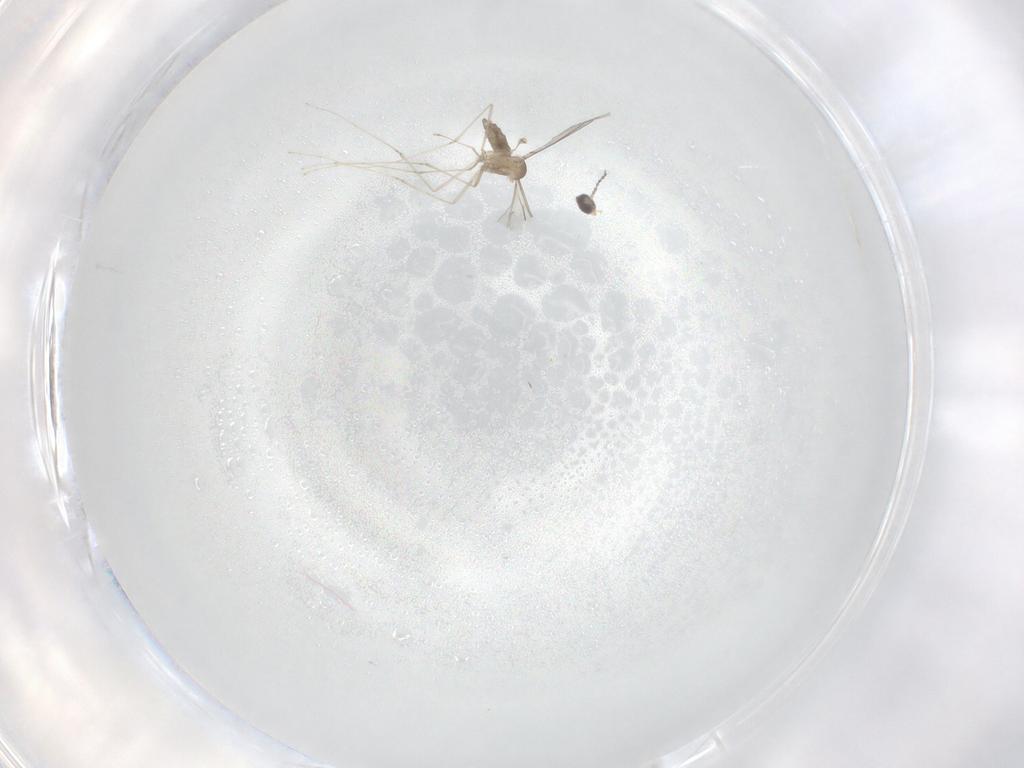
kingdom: Animalia
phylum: Arthropoda
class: Insecta
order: Diptera
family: Cecidomyiidae
